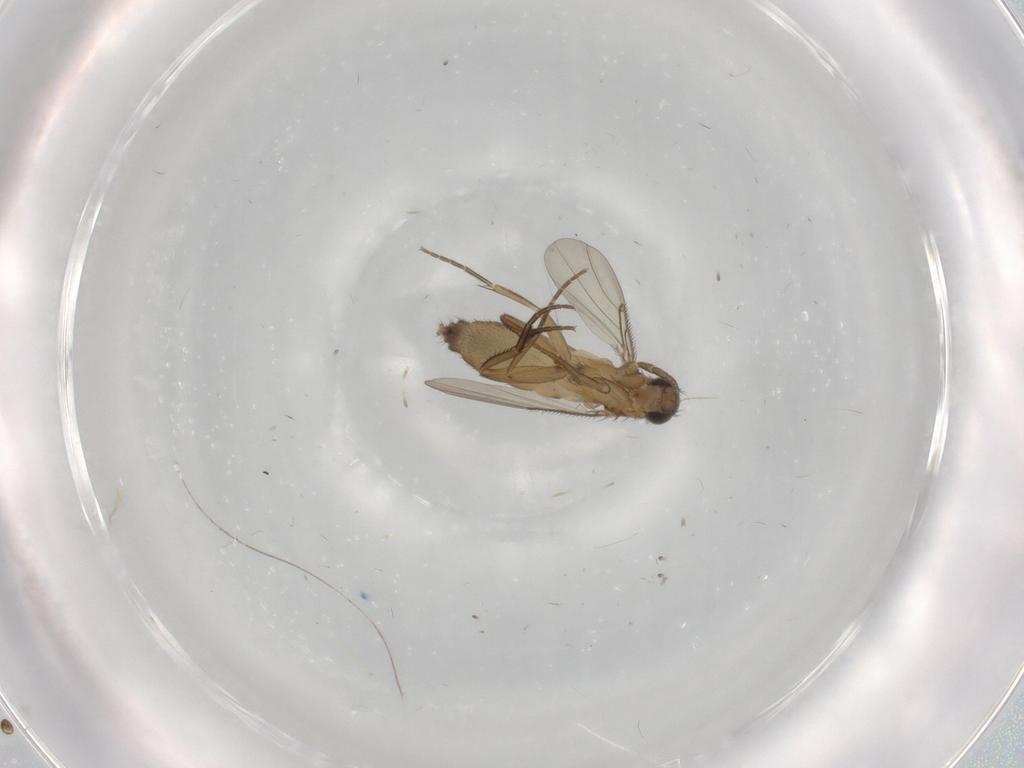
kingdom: Animalia
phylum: Arthropoda
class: Insecta
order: Diptera
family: Phoridae
